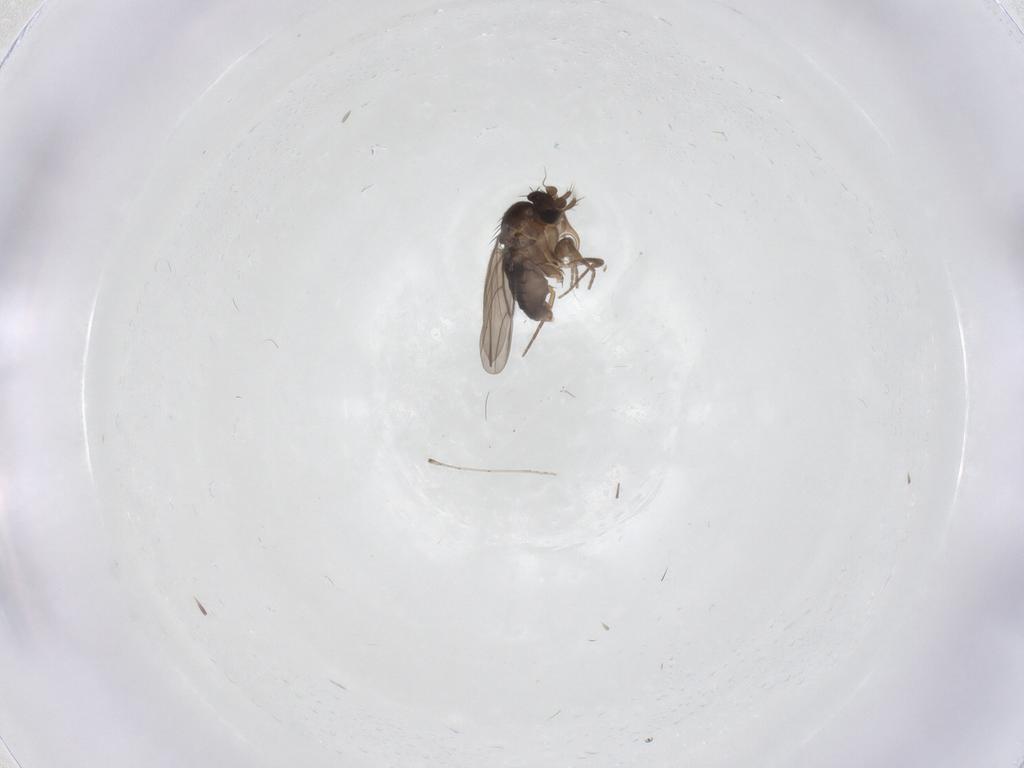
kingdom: Animalia
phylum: Arthropoda
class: Insecta
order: Diptera
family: Phoridae
